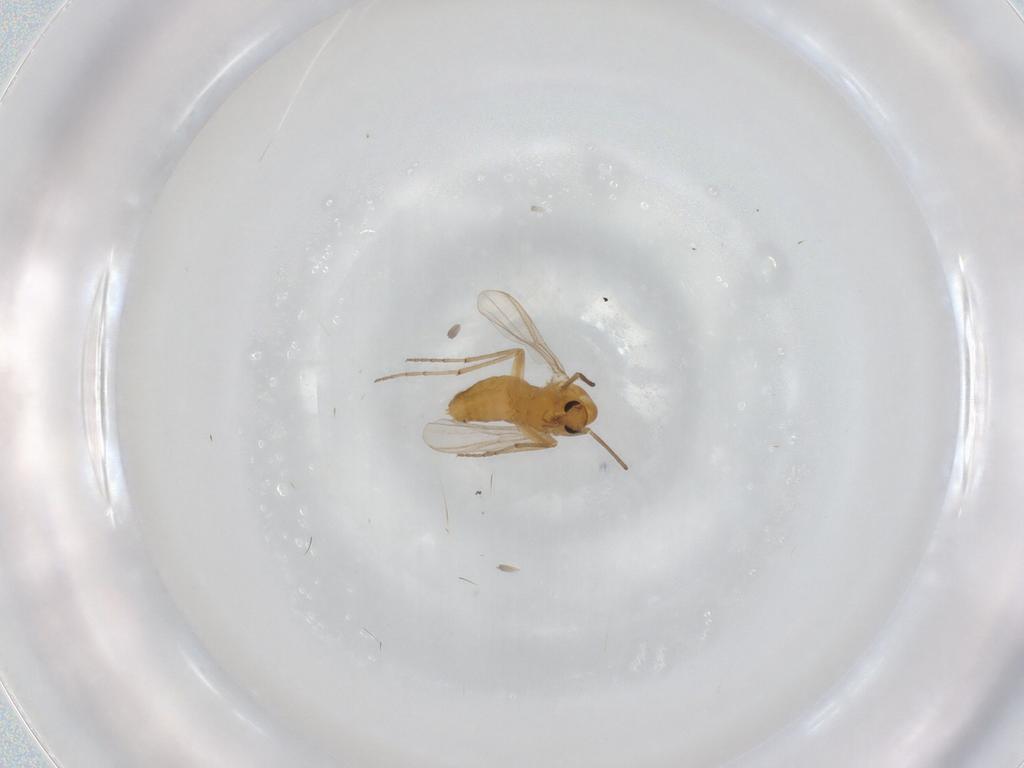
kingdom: Animalia
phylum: Arthropoda
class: Insecta
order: Diptera
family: Chironomidae
